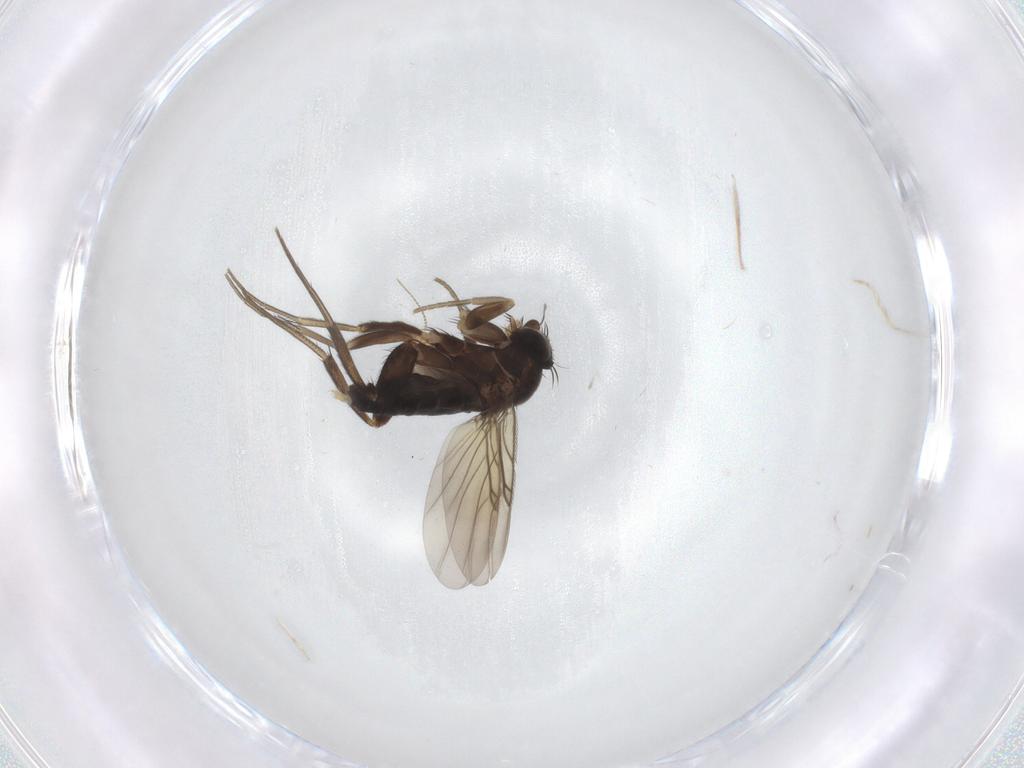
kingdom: Animalia
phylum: Arthropoda
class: Insecta
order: Diptera
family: Phoridae
